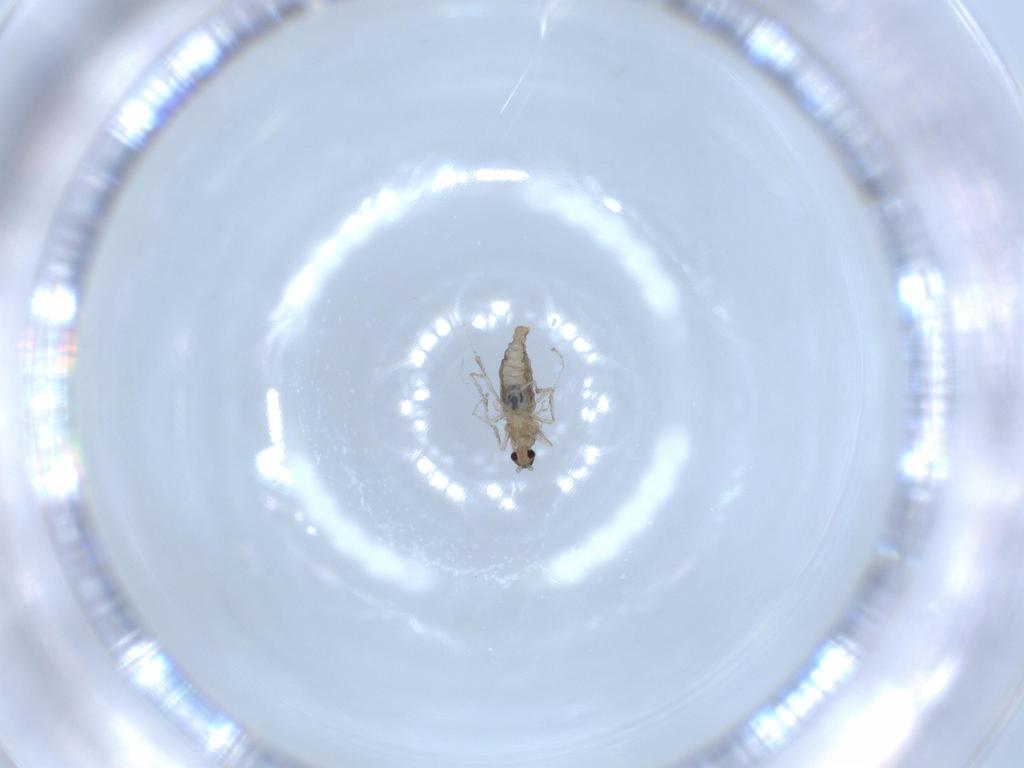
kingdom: Animalia
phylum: Arthropoda
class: Insecta
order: Diptera
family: Cecidomyiidae
